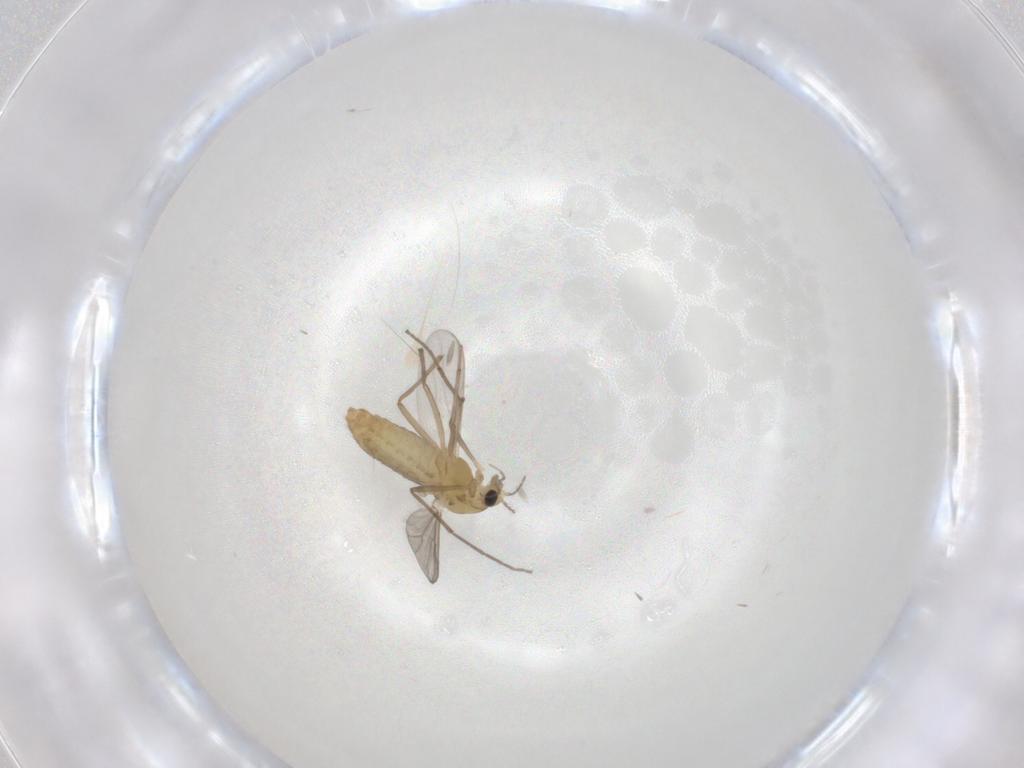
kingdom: Animalia
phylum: Arthropoda
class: Insecta
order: Diptera
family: Chironomidae
